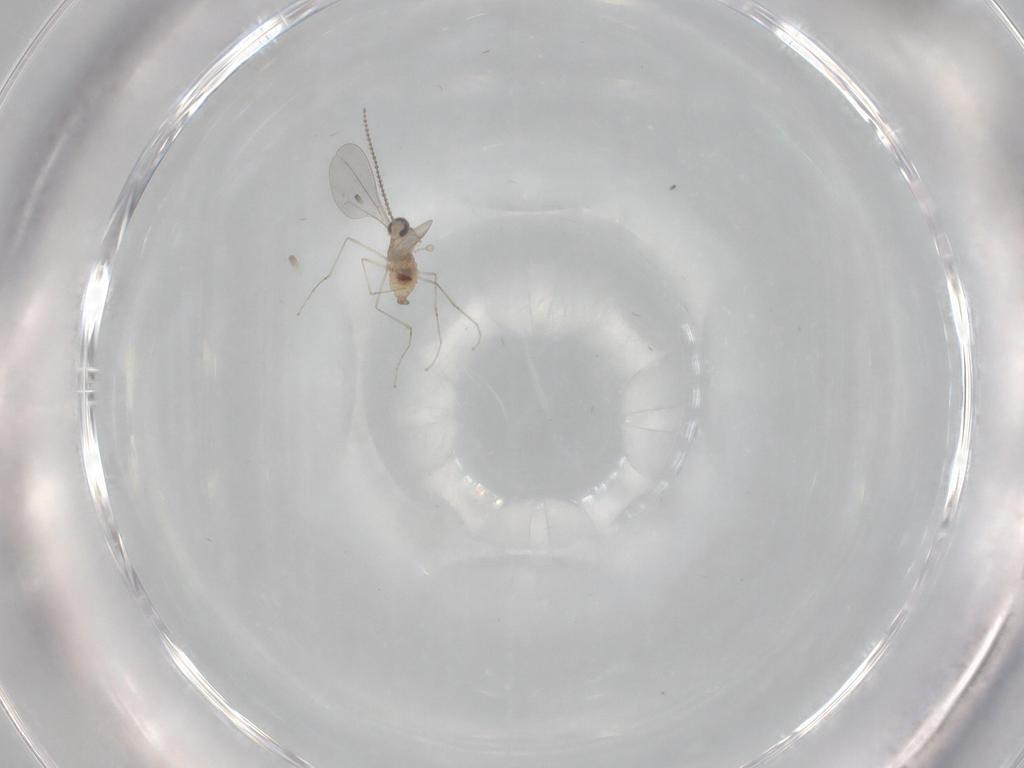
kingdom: Animalia
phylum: Arthropoda
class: Insecta
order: Diptera
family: Cecidomyiidae
